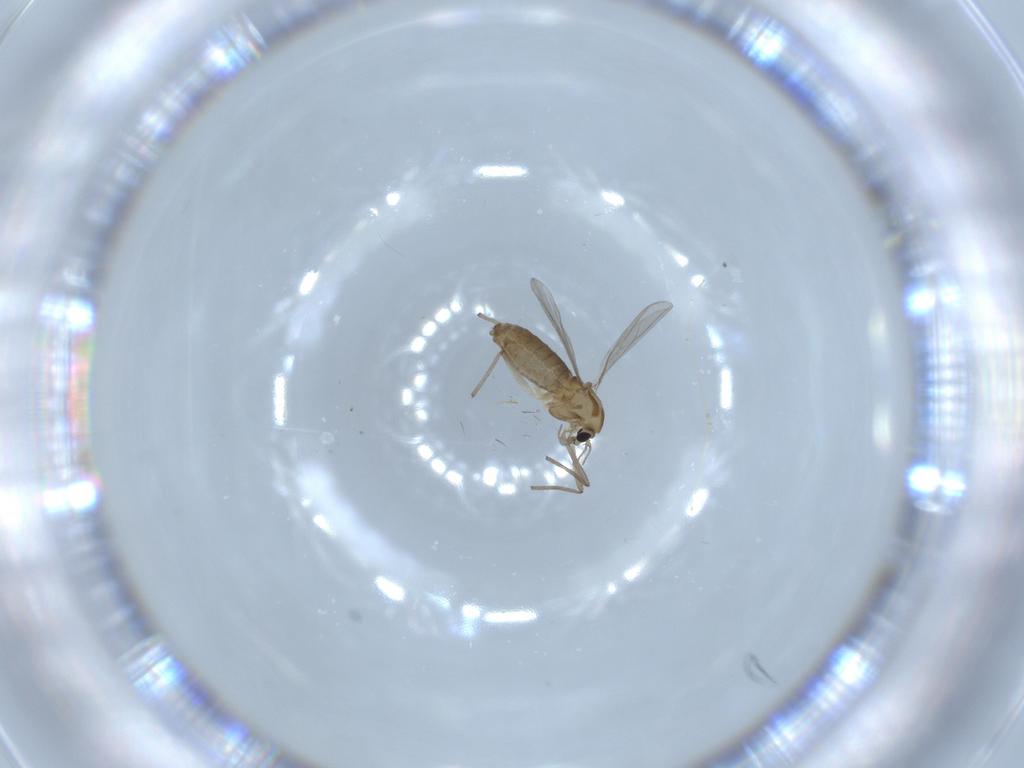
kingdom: Animalia
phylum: Arthropoda
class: Insecta
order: Diptera
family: Chironomidae
